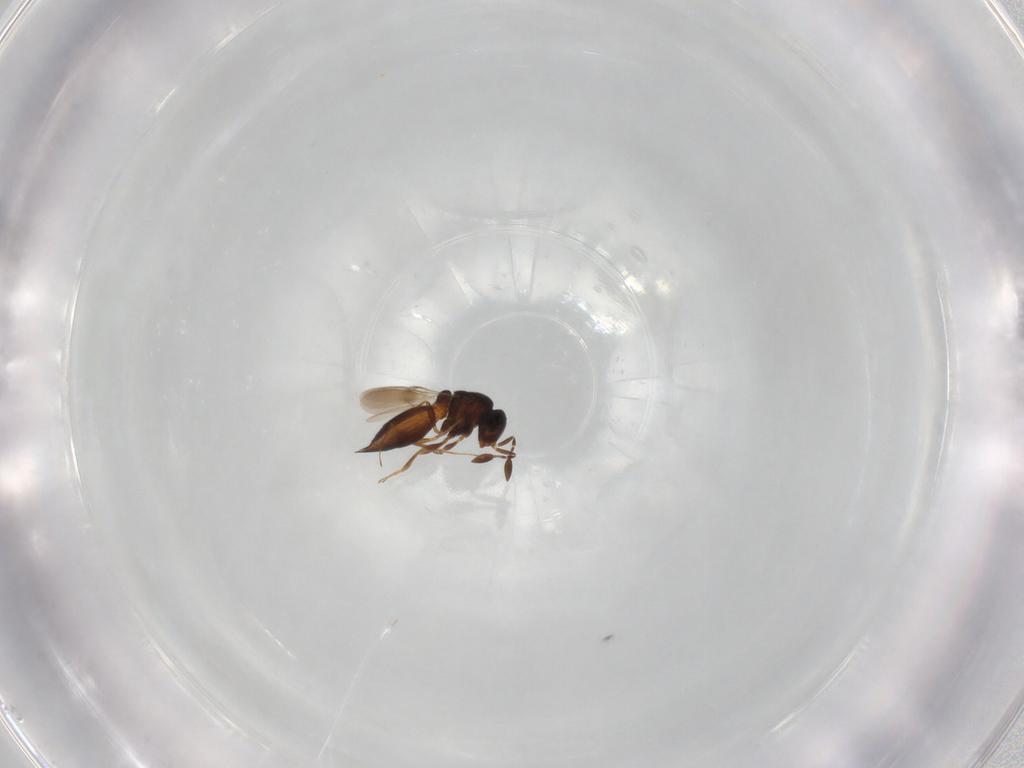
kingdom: Animalia
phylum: Arthropoda
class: Insecta
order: Hymenoptera
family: Scelionidae
